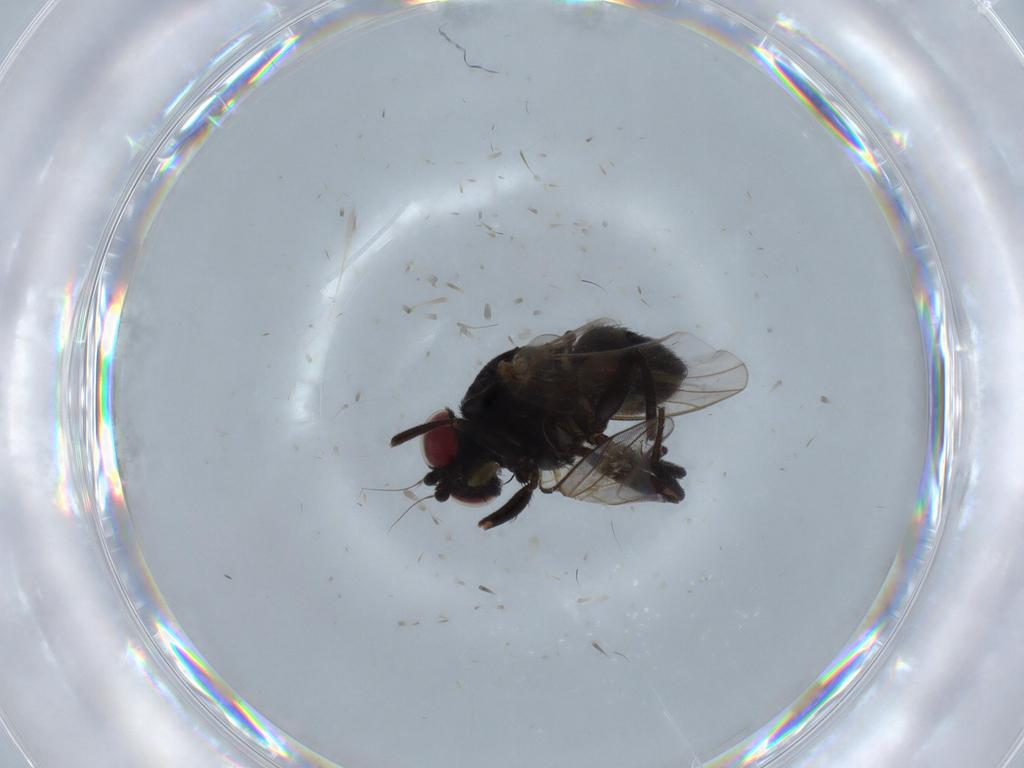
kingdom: Animalia
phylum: Arthropoda
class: Insecta
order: Diptera
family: Agromyzidae
